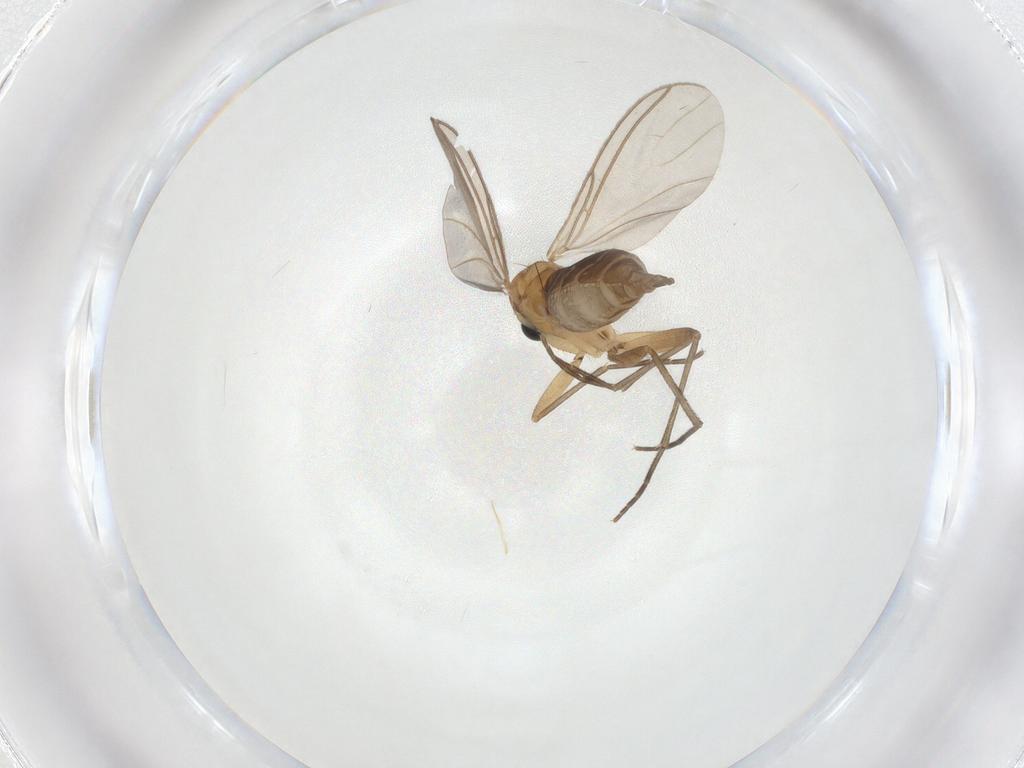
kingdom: Animalia
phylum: Arthropoda
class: Insecta
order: Diptera
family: Sciaridae
